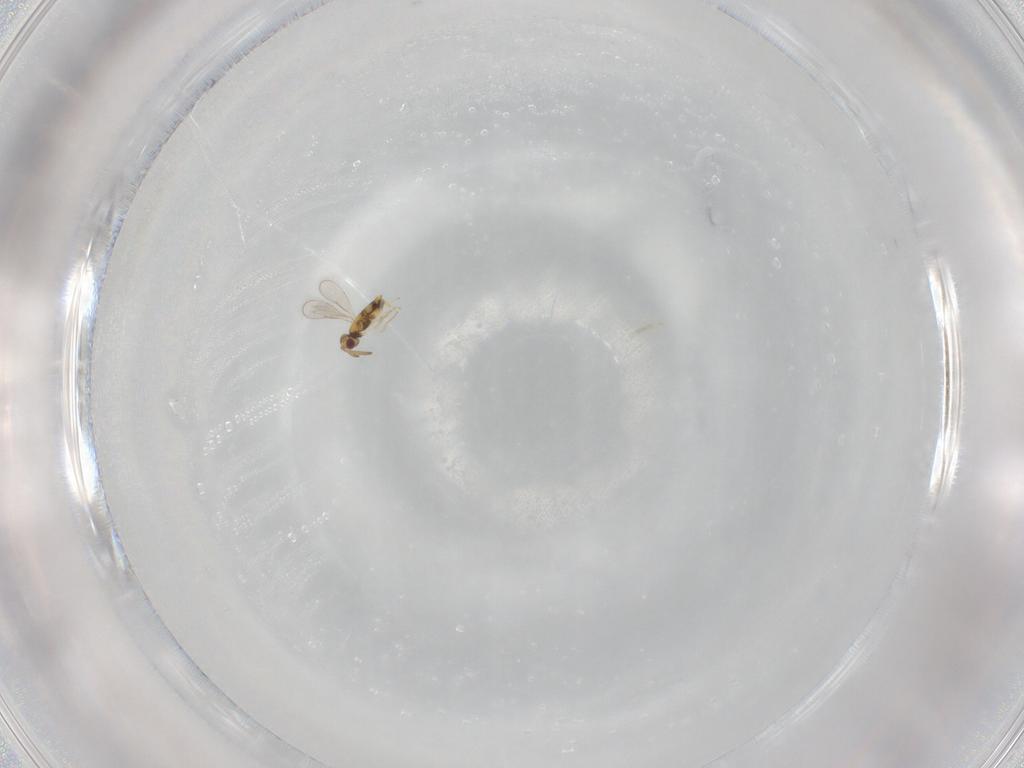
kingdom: Animalia
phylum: Arthropoda
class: Insecta
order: Hymenoptera
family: Aphelinidae
